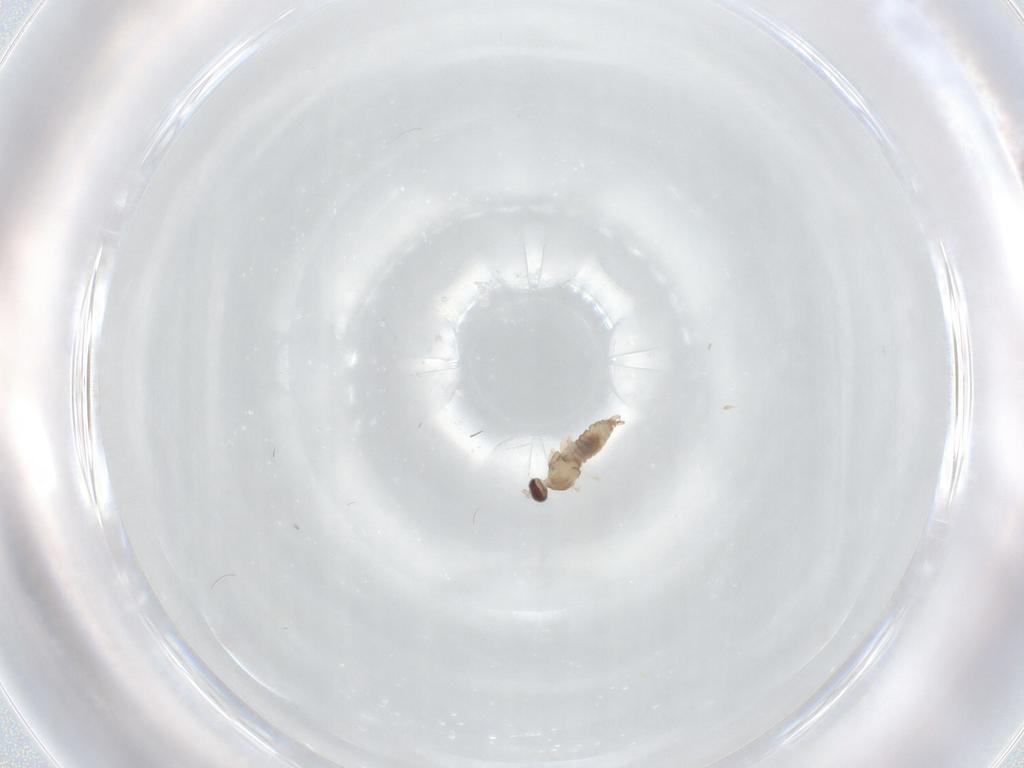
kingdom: Animalia
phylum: Arthropoda
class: Insecta
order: Diptera
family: Cecidomyiidae
